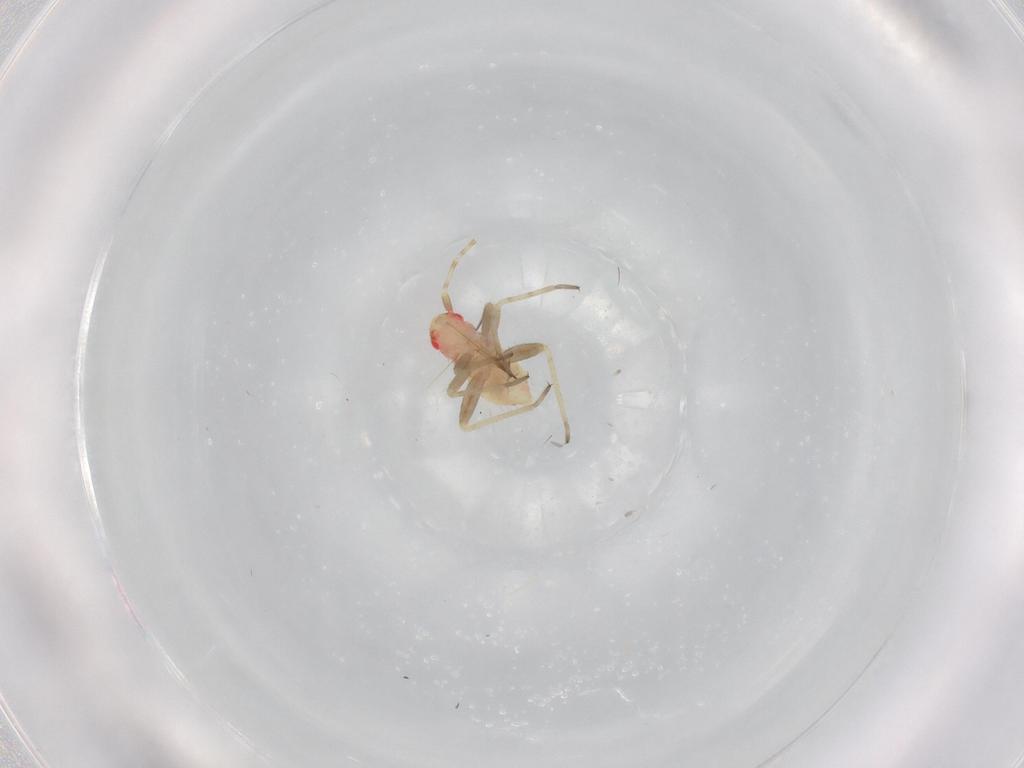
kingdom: Animalia
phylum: Arthropoda
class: Insecta
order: Hemiptera
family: Miridae
